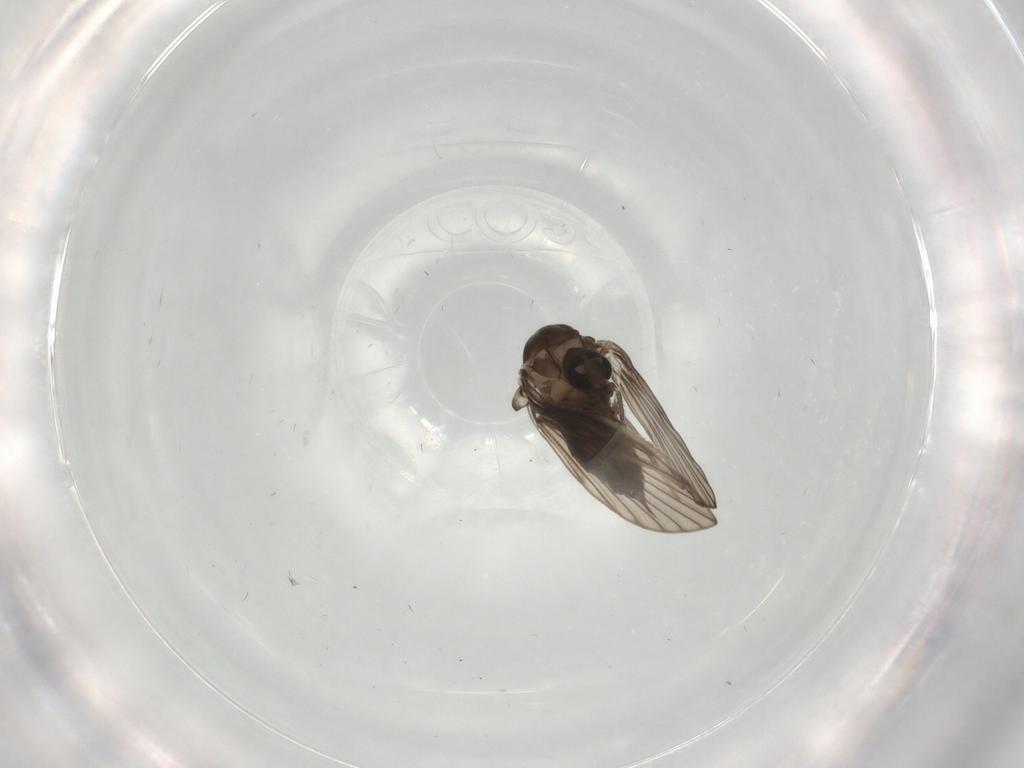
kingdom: Animalia
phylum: Arthropoda
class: Insecta
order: Diptera
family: Cecidomyiidae
